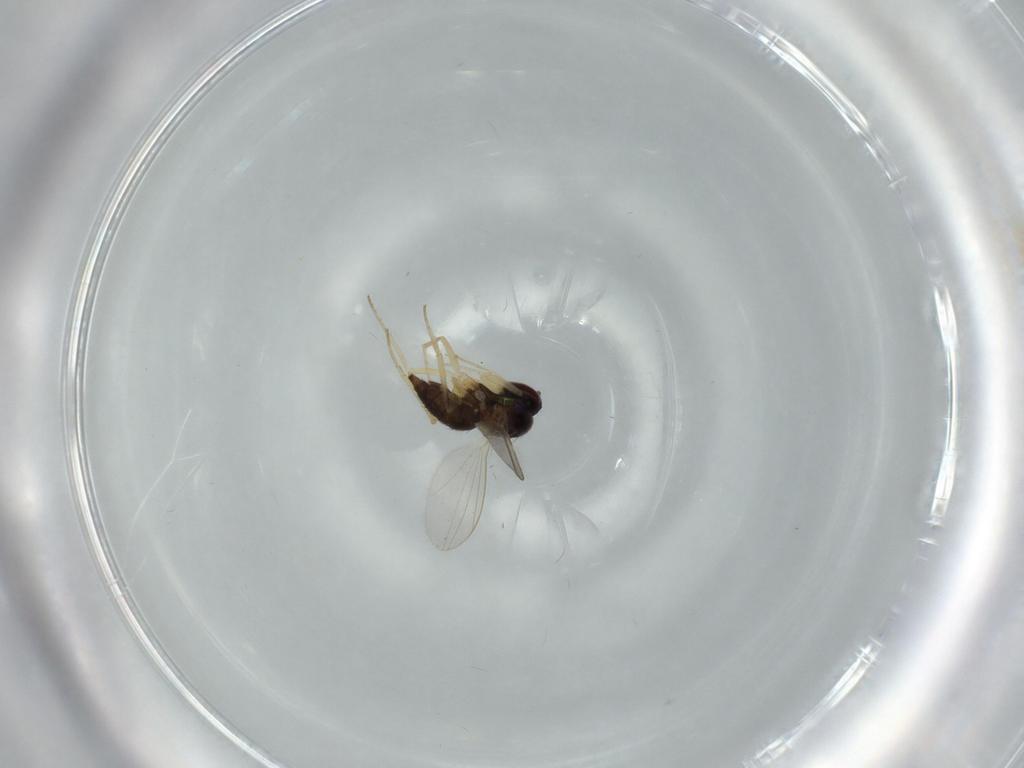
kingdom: Animalia
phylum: Arthropoda
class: Insecta
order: Diptera
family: Dolichopodidae
